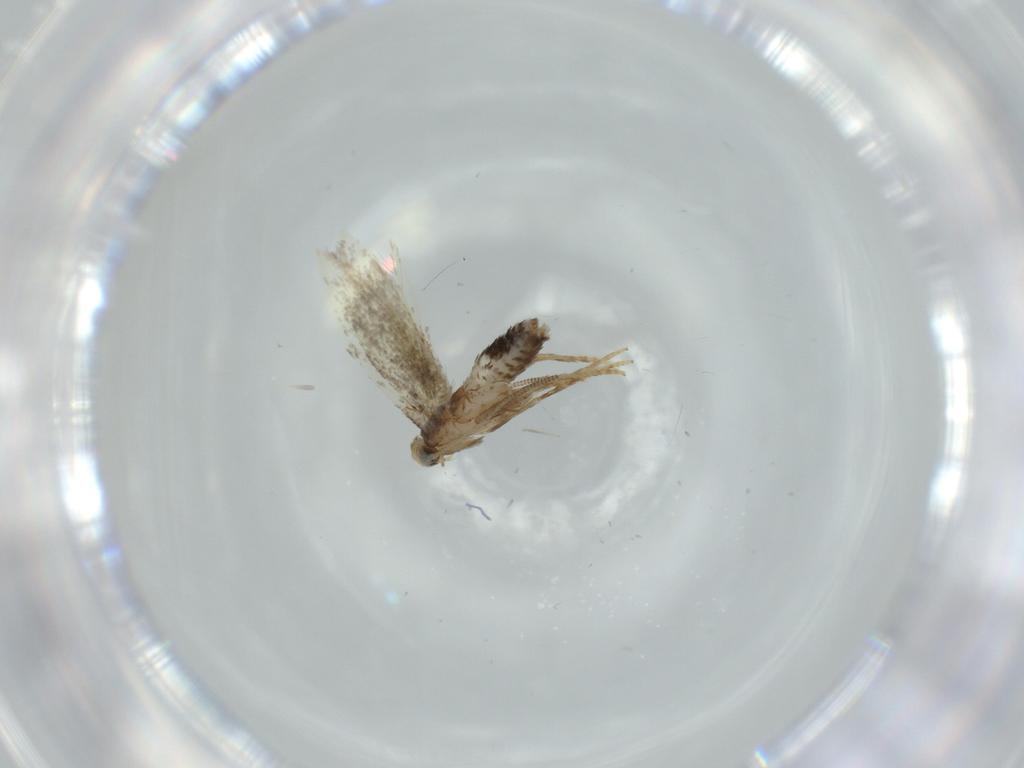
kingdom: Animalia
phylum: Arthropoda
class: Insecta
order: Lepidoptera
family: Nepticulidae
